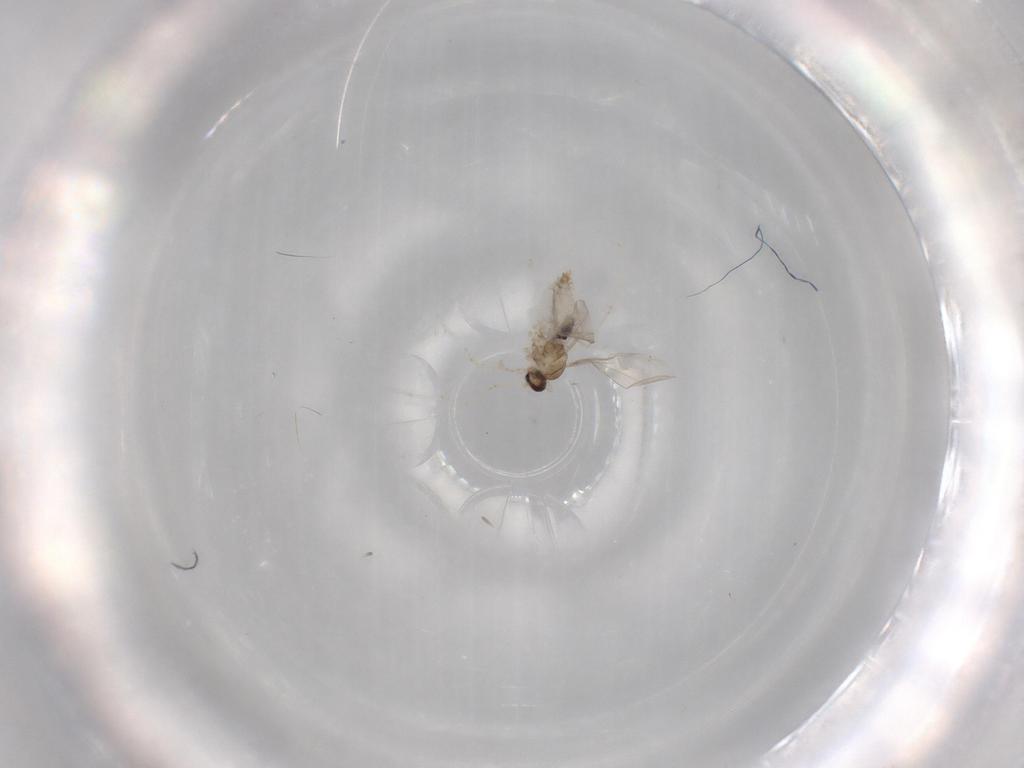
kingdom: Animalia
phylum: Arthropoda
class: Insecta
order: Diptera
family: Cecidomyiidae
